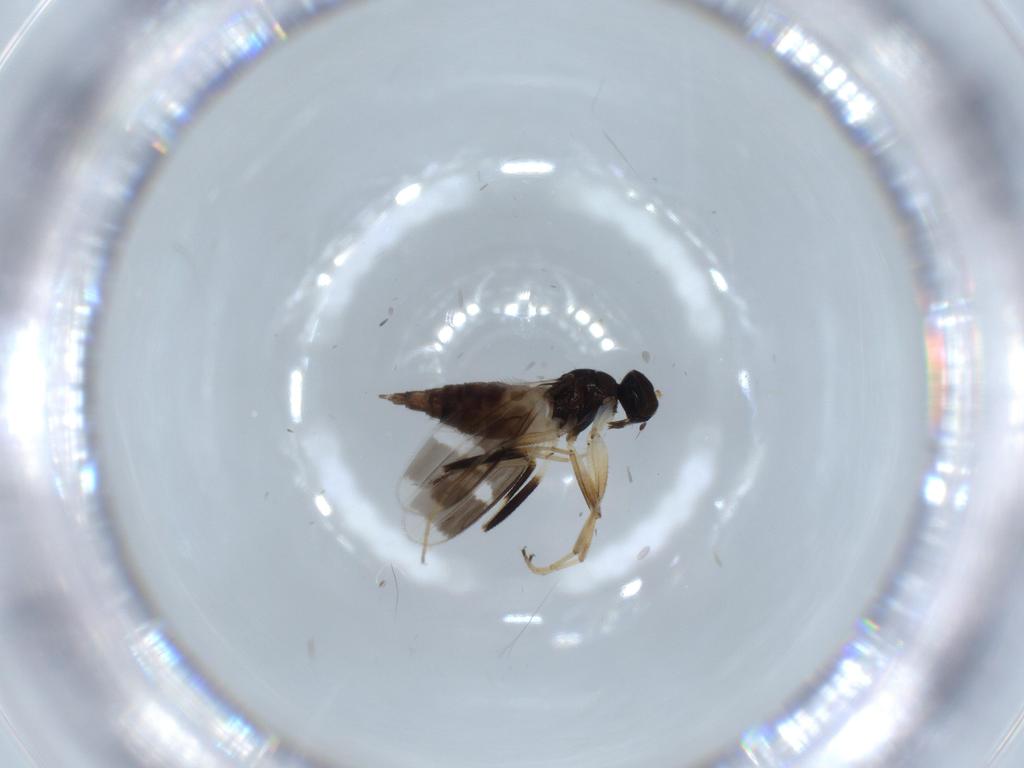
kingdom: Animalia
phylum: Arthropoda
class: Insecta
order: Diptera
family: Hybotidae
